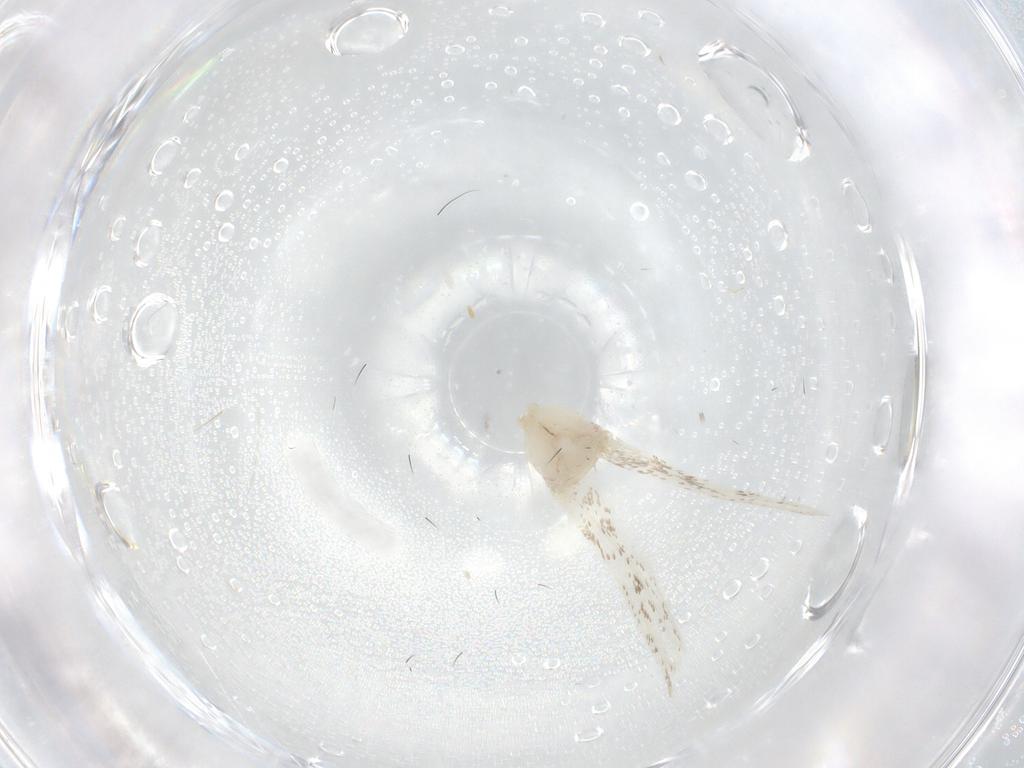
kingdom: Animalia
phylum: Arthropoda
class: Insecta
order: Lepidoptera
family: Dryadaulidae
